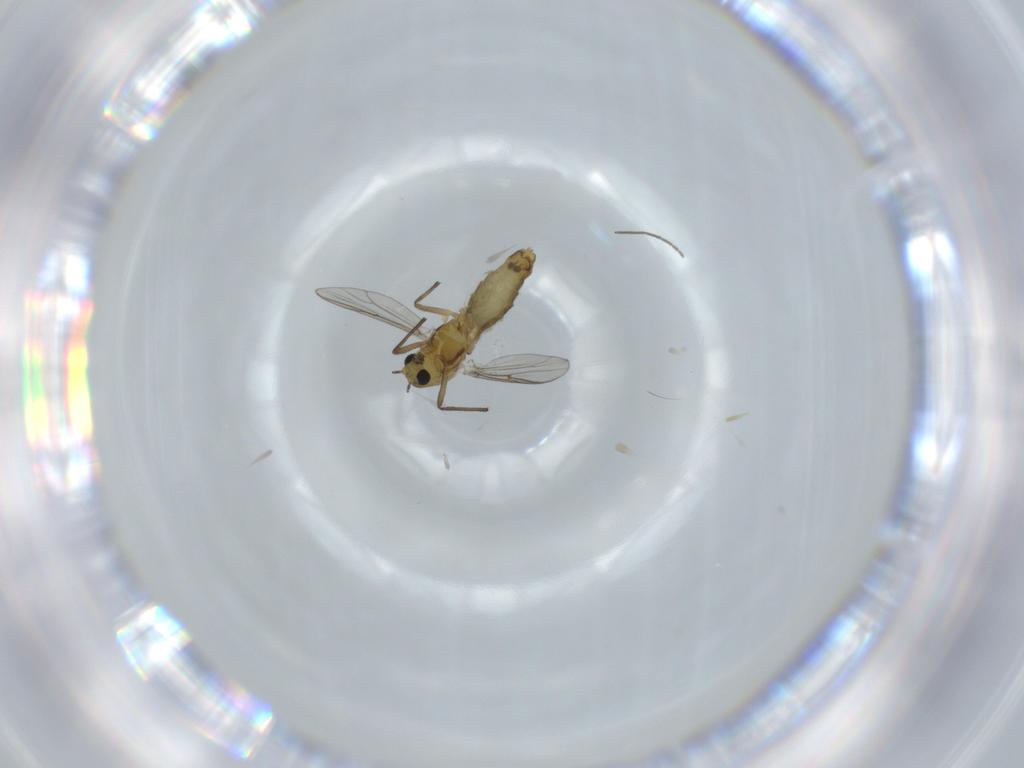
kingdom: Animalia
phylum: Arthropoda
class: Insecta
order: Diptera
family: Chironomidae
